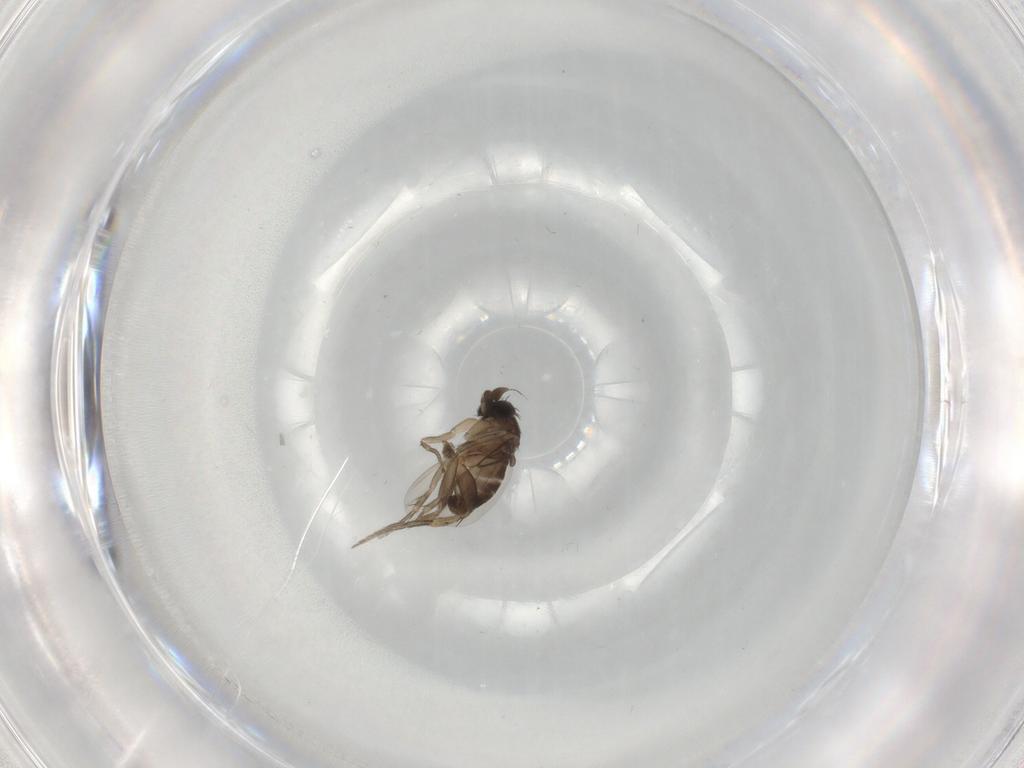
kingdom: Animalia
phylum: Arthropoda
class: Insecta
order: Diptera
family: Phoridae
